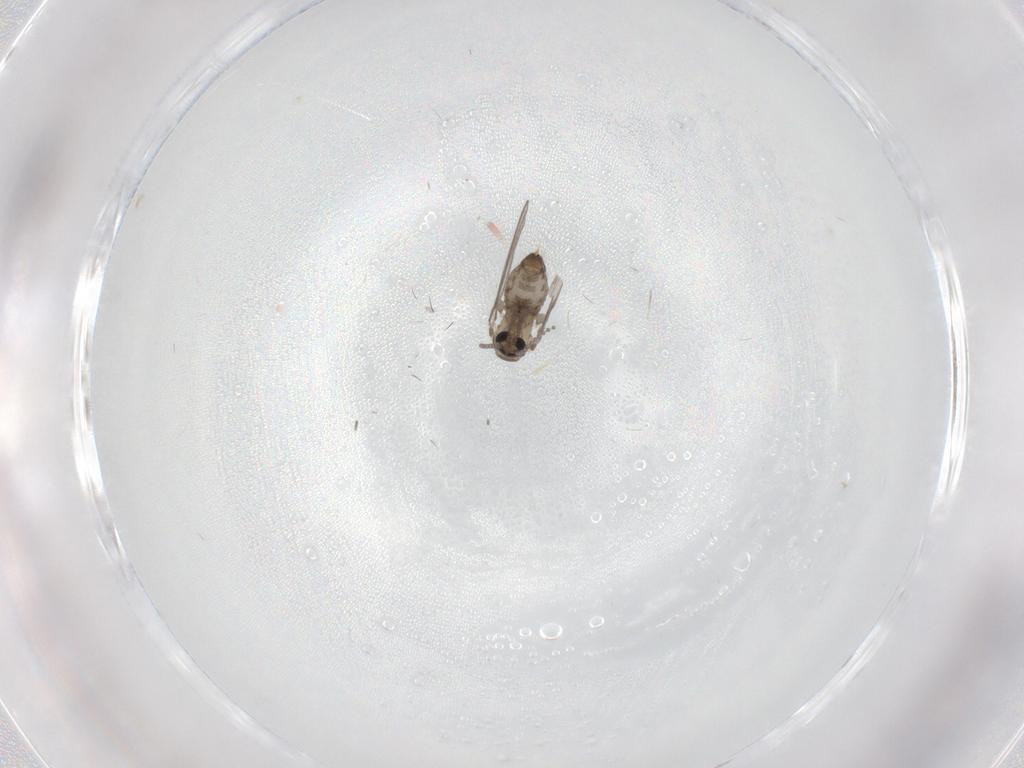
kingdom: Animalia
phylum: Arthropoda
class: Insecta
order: Diptera
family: Psychodidae
